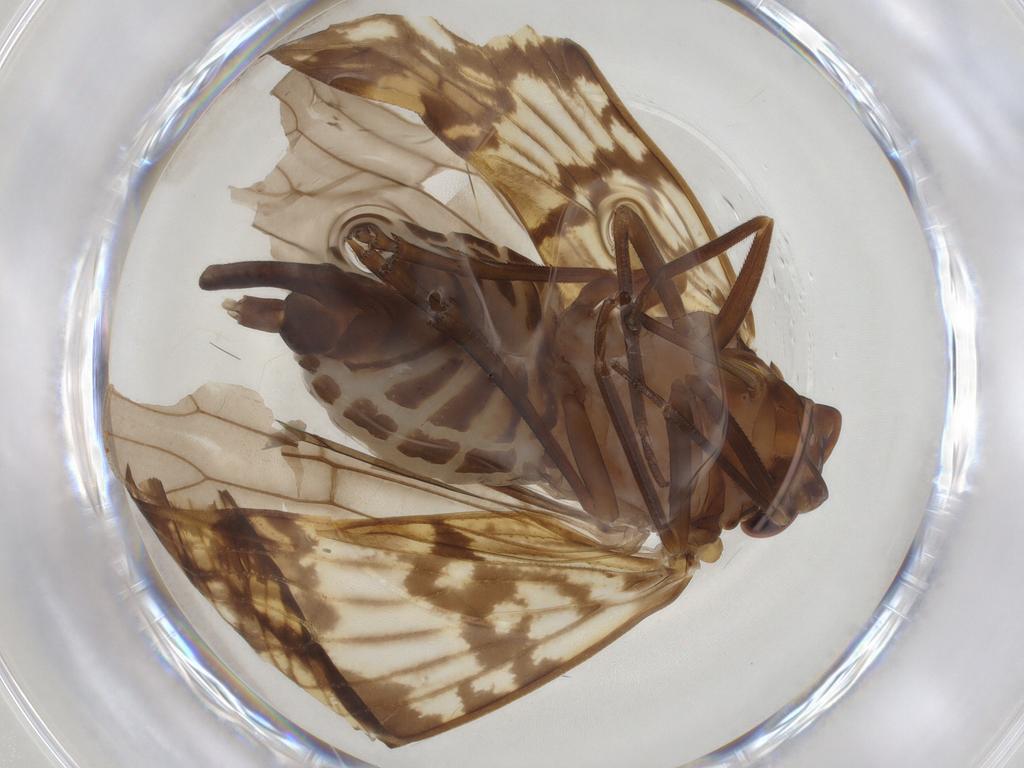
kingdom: Animalia
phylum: Arthropoda
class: Insecta
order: Hemiptera
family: Cixiidae
